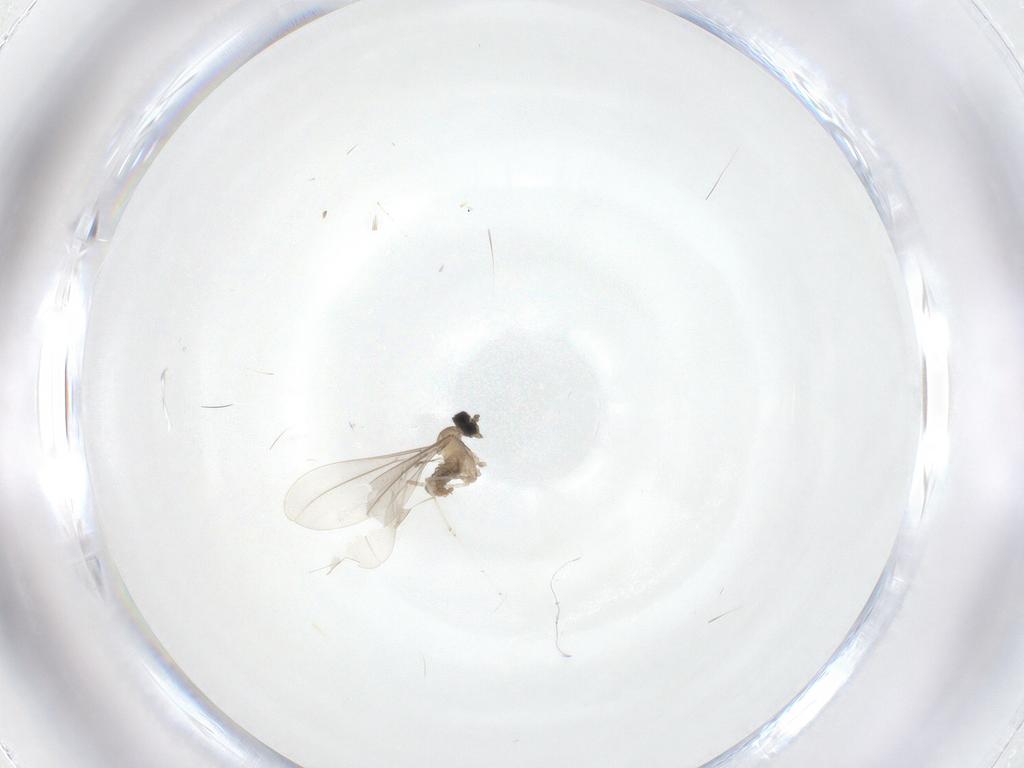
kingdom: Animalia
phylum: Arthropoda
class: Insecta
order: Diptera
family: Cecidomyiidae
